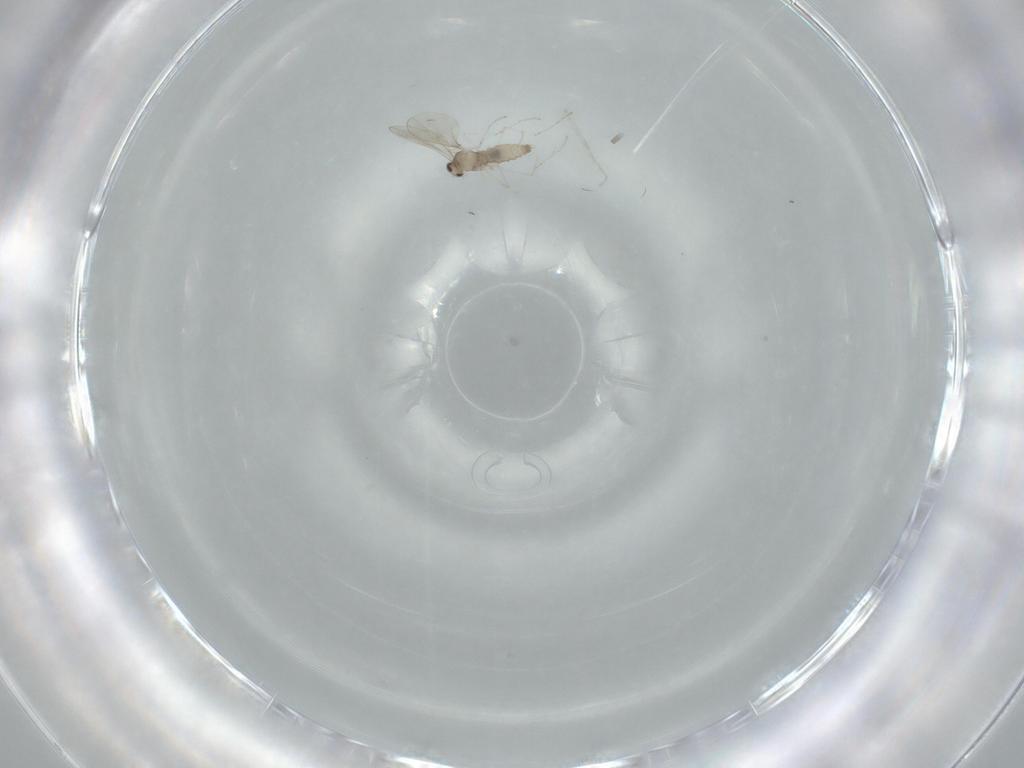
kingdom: Animalia
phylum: Arthropoda
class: Insecta
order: Diptera
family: Cecidomyiidae
